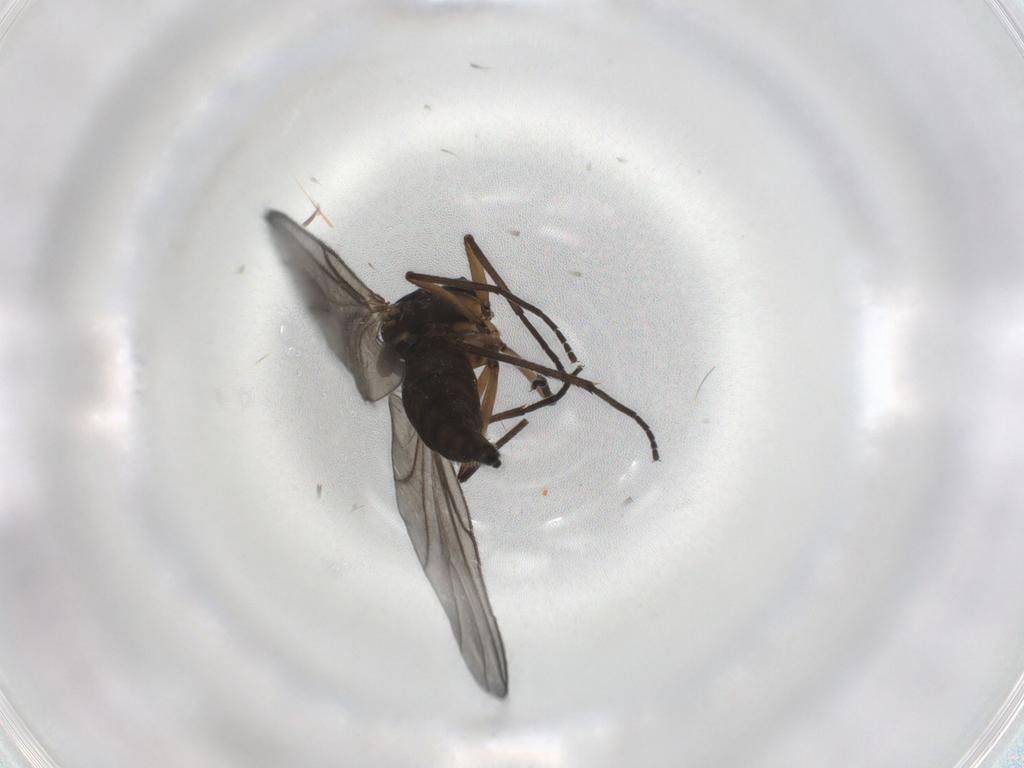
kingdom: Animalia
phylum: Arthropoda
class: Insecta
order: Diptera
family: Sciaridae
